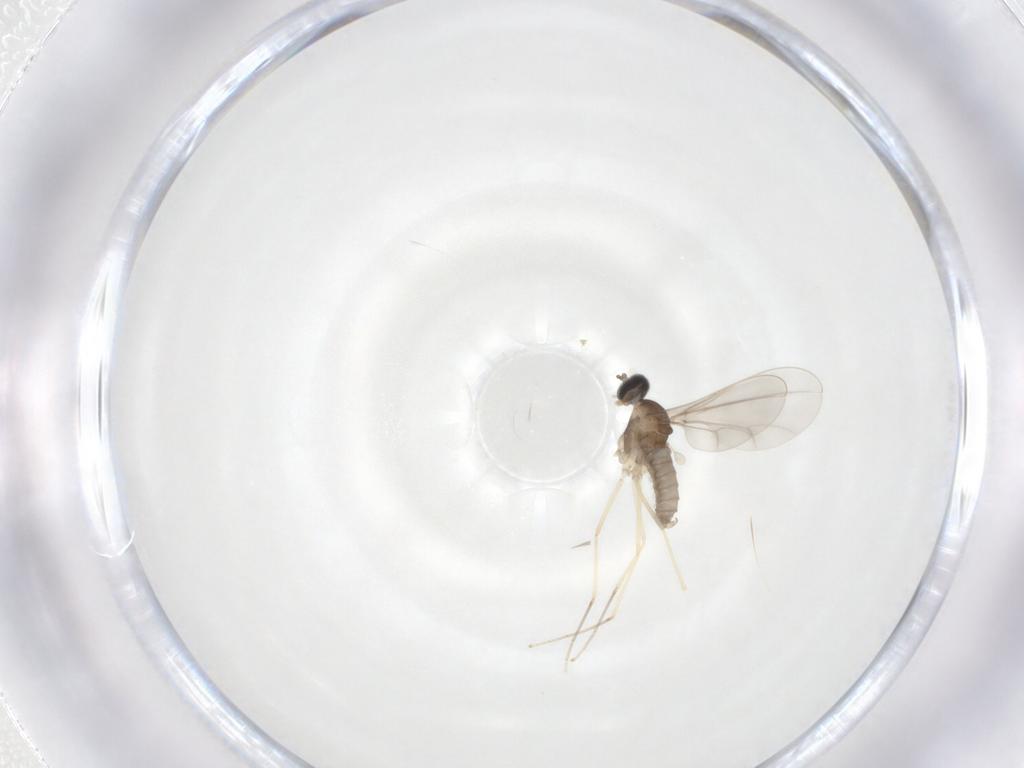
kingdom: Animalia
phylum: Arthropoda
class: Insecta
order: Diptera
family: Cecidomyiidae
